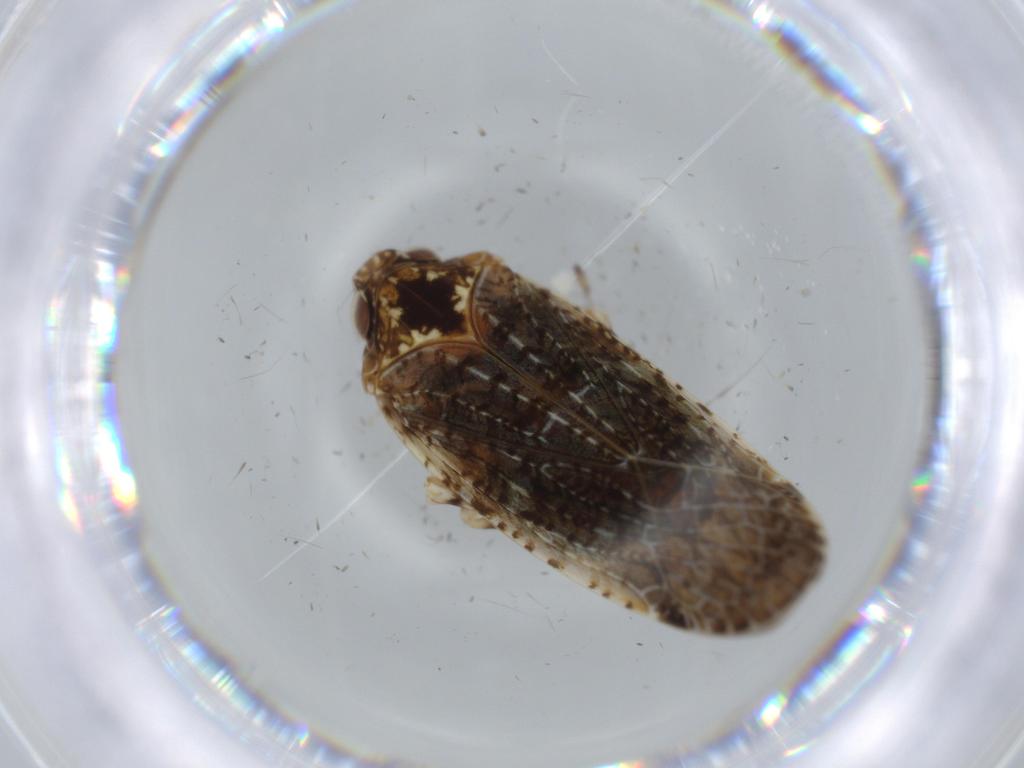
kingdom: Animalia
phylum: Arthropoda
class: Insecta
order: Hemiptera
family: Achilidae
